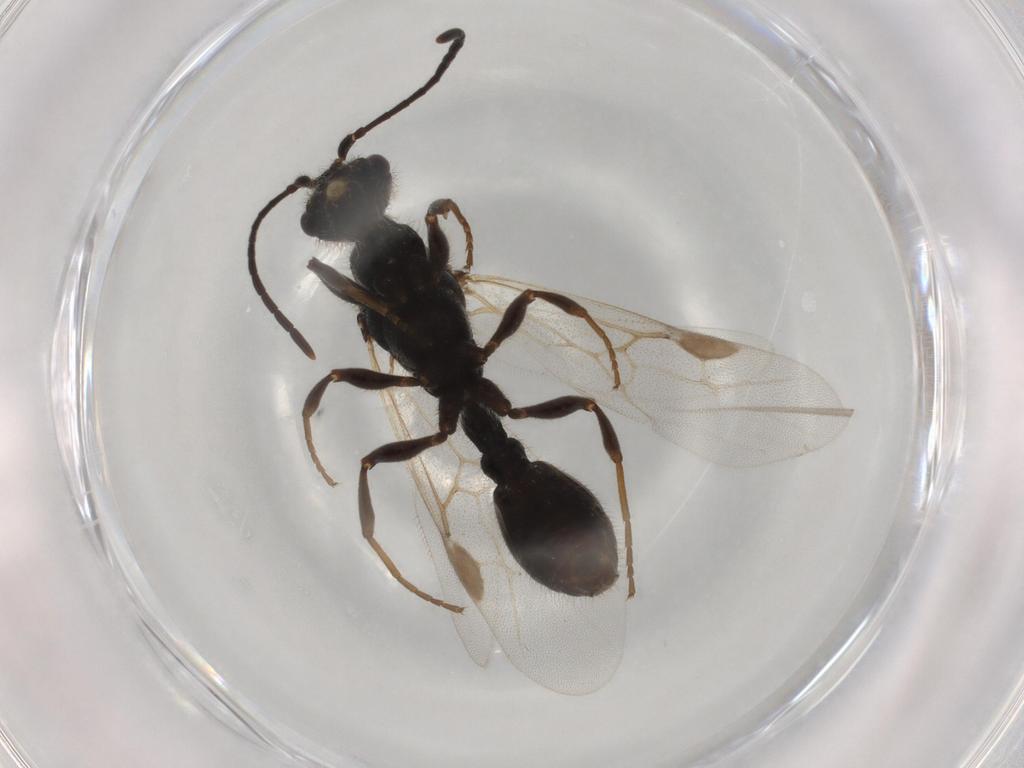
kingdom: Animalia
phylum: Arthropoda
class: Insecta
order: Hymenoptera
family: Formicidae
